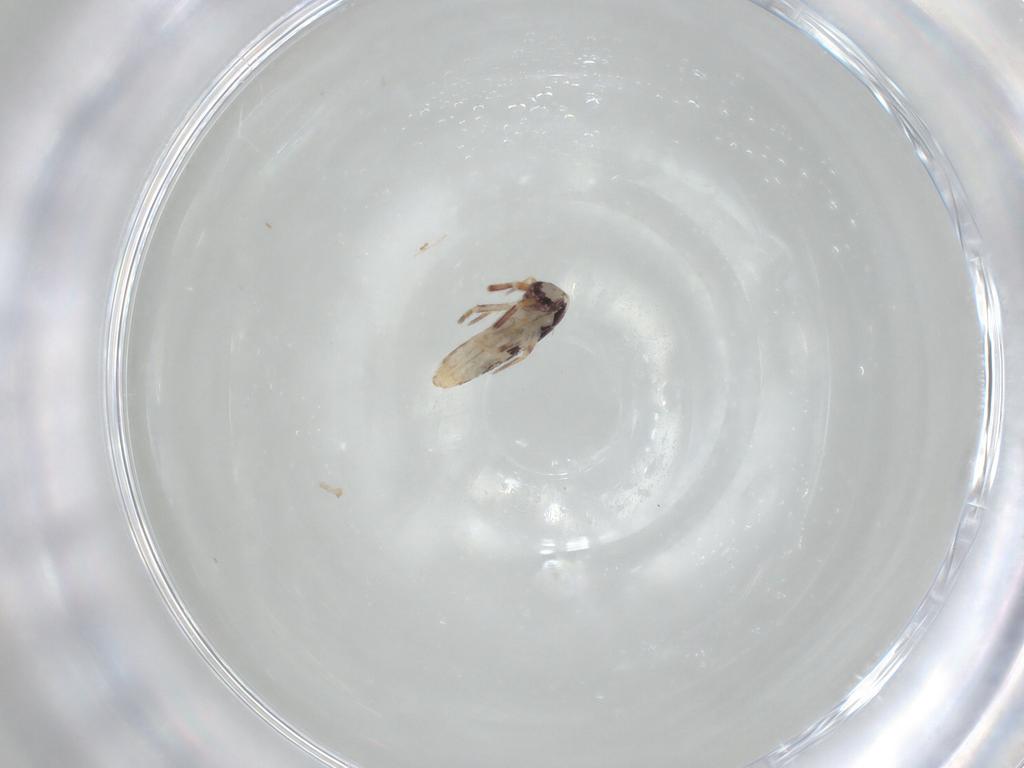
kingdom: Animalia
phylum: Arthropoda
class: Collembola
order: Entomobryomorpha
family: Entomobryidae
